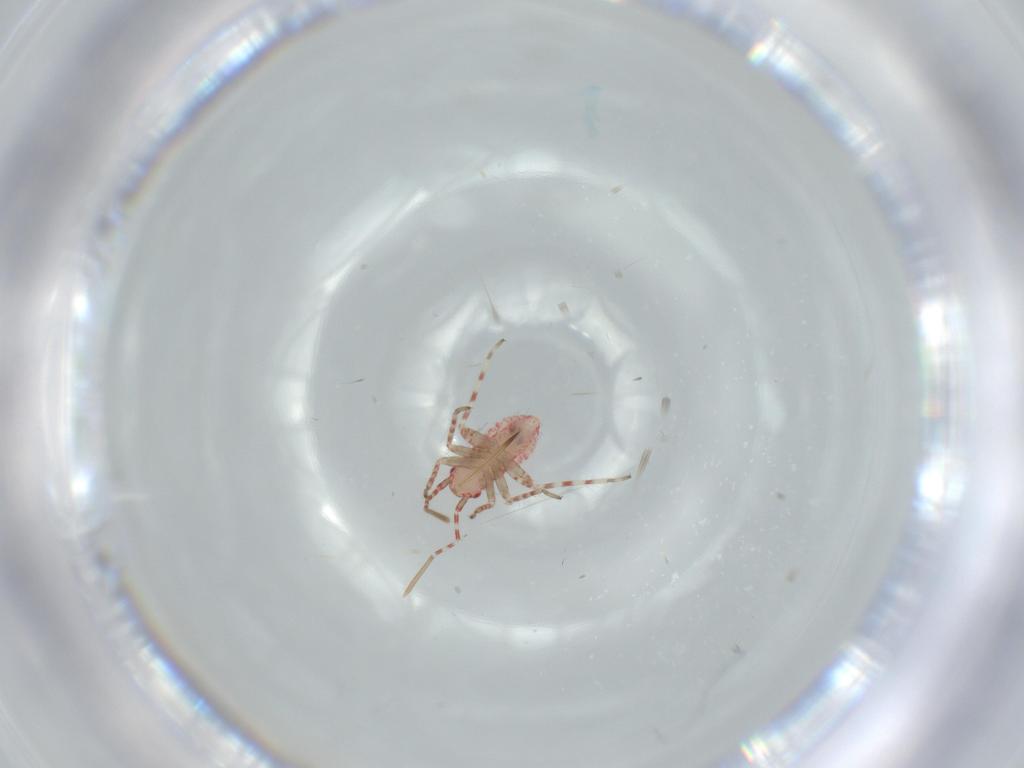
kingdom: Animalia
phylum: Arthropoda
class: Insecta
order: Hemiptera
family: Miridae
